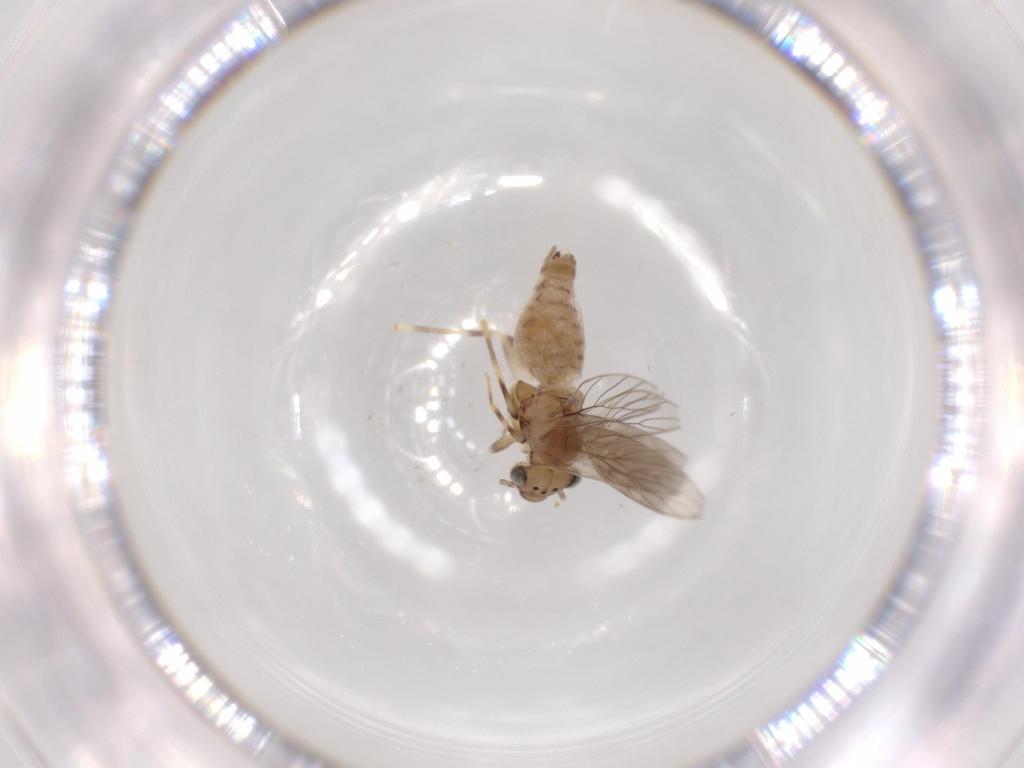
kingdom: Animalia
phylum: Arthropoda
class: Insecta
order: Psocodea
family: Lepidopsocidae
